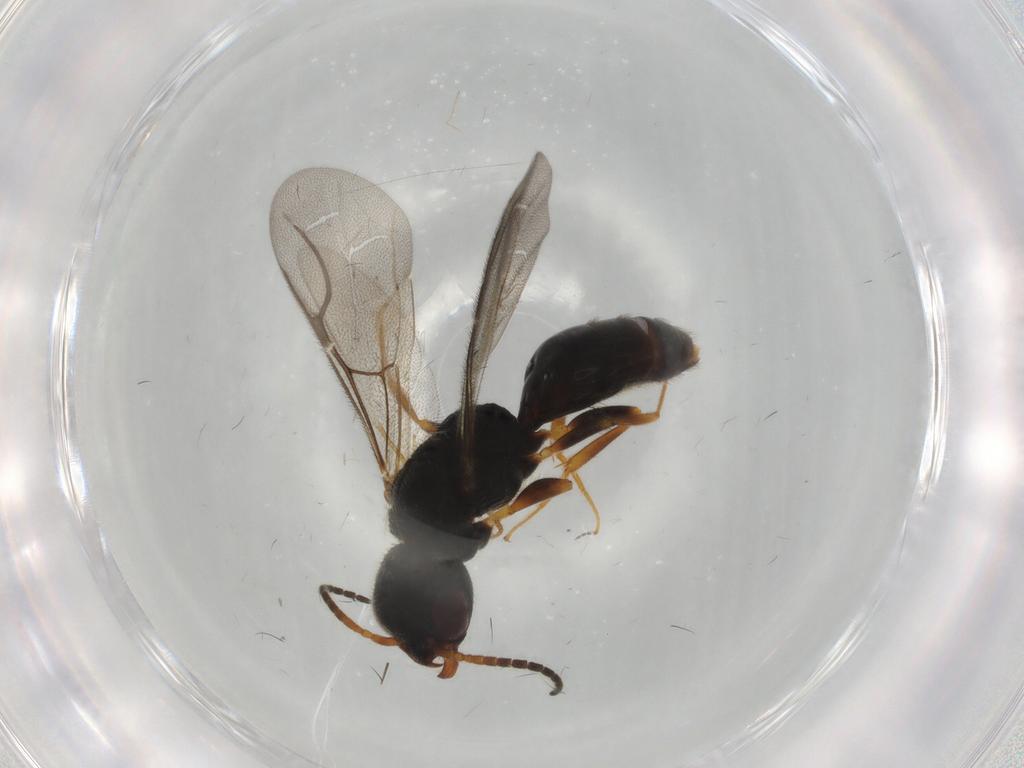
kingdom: Animalia
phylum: Arthropoda
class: Insecta
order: Hymenoptera
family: Bethylidae
